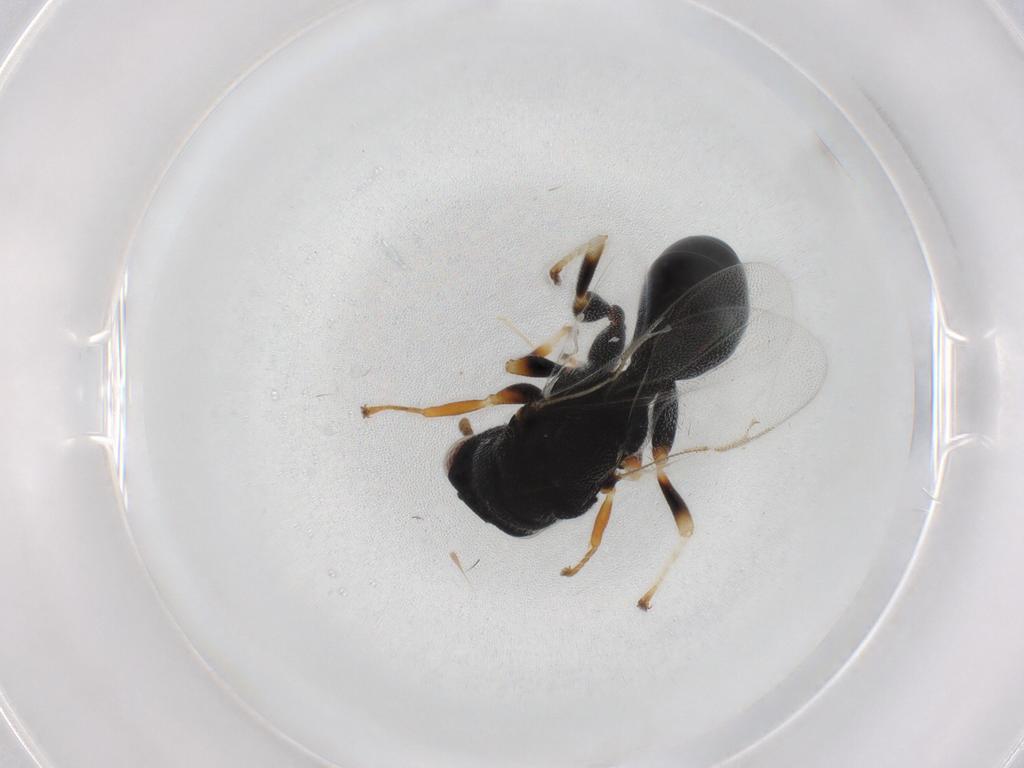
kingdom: Animalia
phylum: Arthropoda
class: Insecta
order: Hymenoptera
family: Eurytomidae
